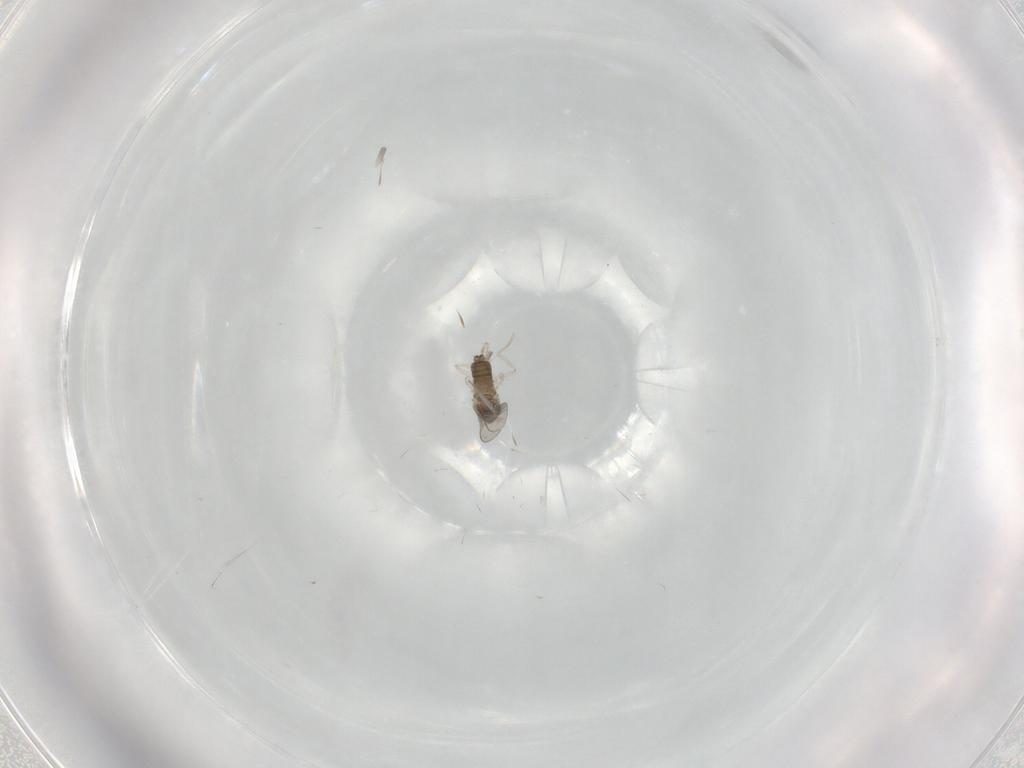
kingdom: Animalia
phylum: Arthropoda
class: Insecta
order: Diptera
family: Cecidomyiidae
